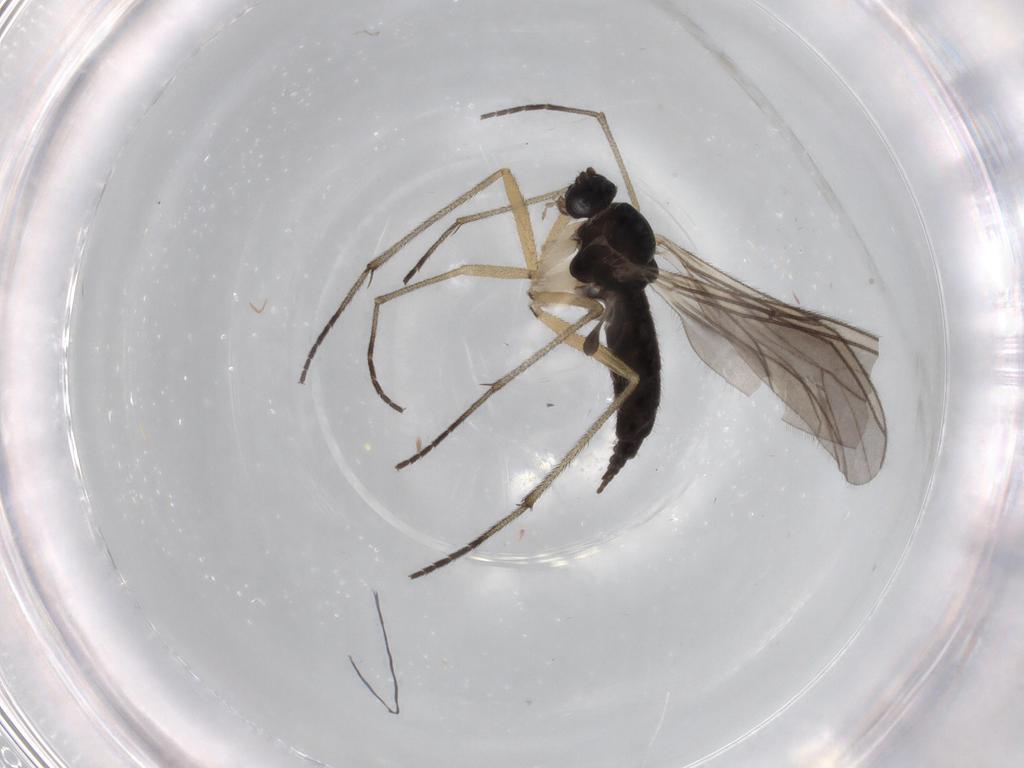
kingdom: Animalia
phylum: Arthropoda
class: Insecta
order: Diptera
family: Sciaridae
